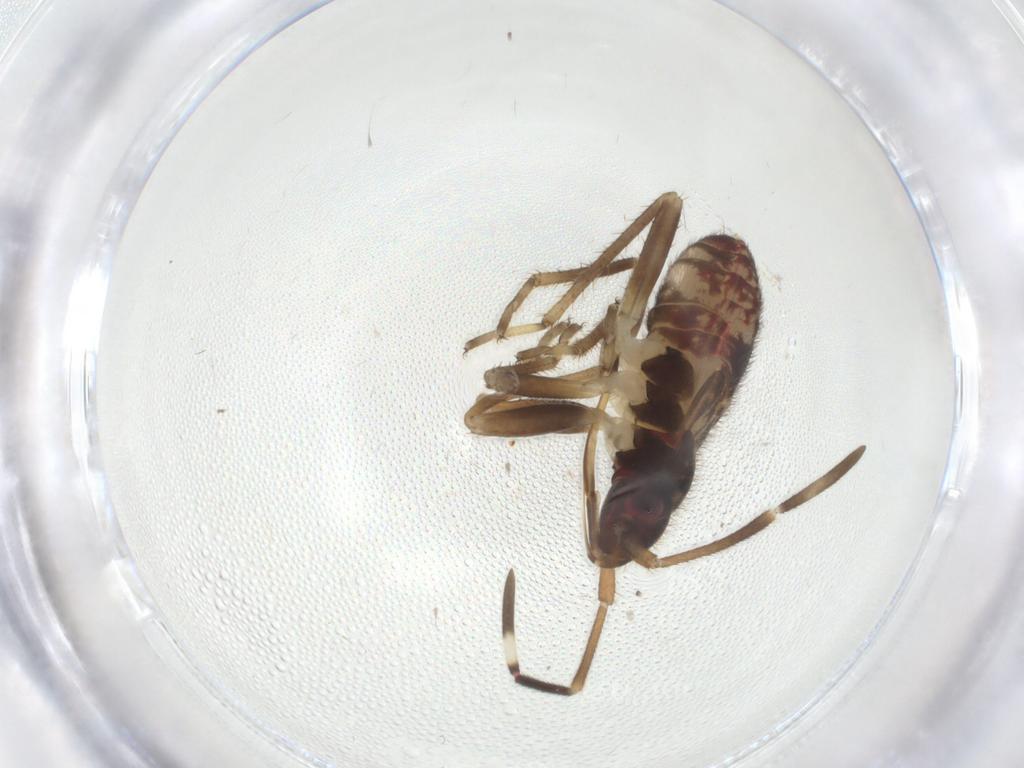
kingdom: Animalia
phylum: Arthropoda
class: Insecta
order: Hemiptera
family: Rhyparochromidae
